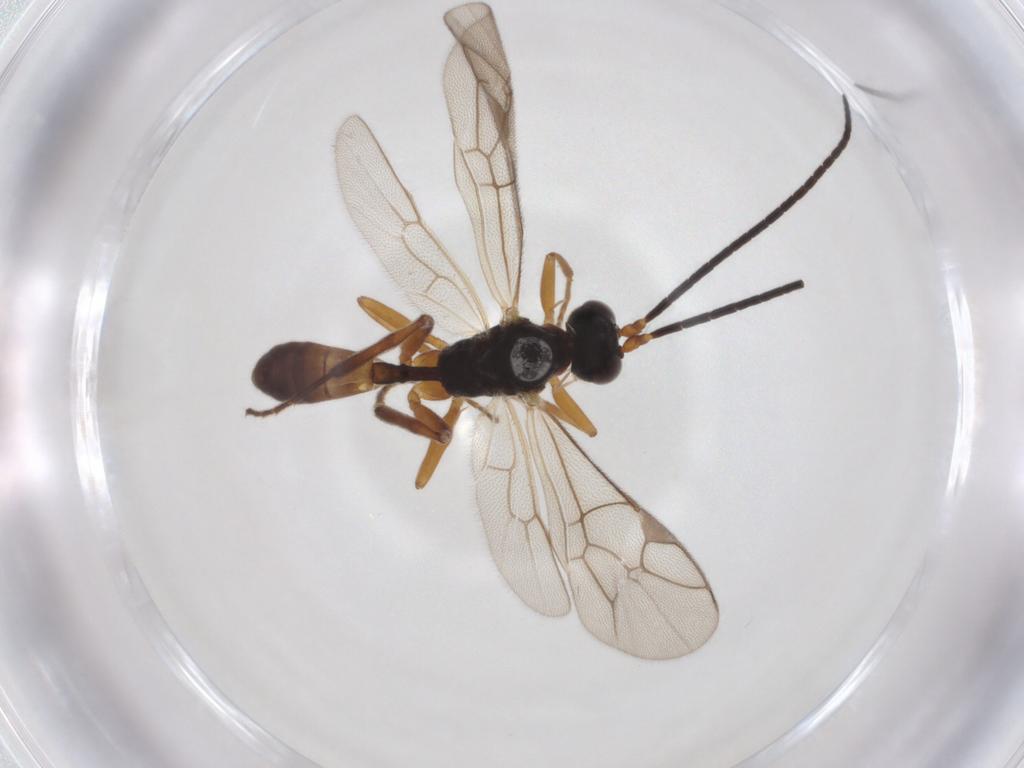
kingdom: Animalia
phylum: Arthropoda
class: Insecta
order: Hymenoptera
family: Ichneumonidae
